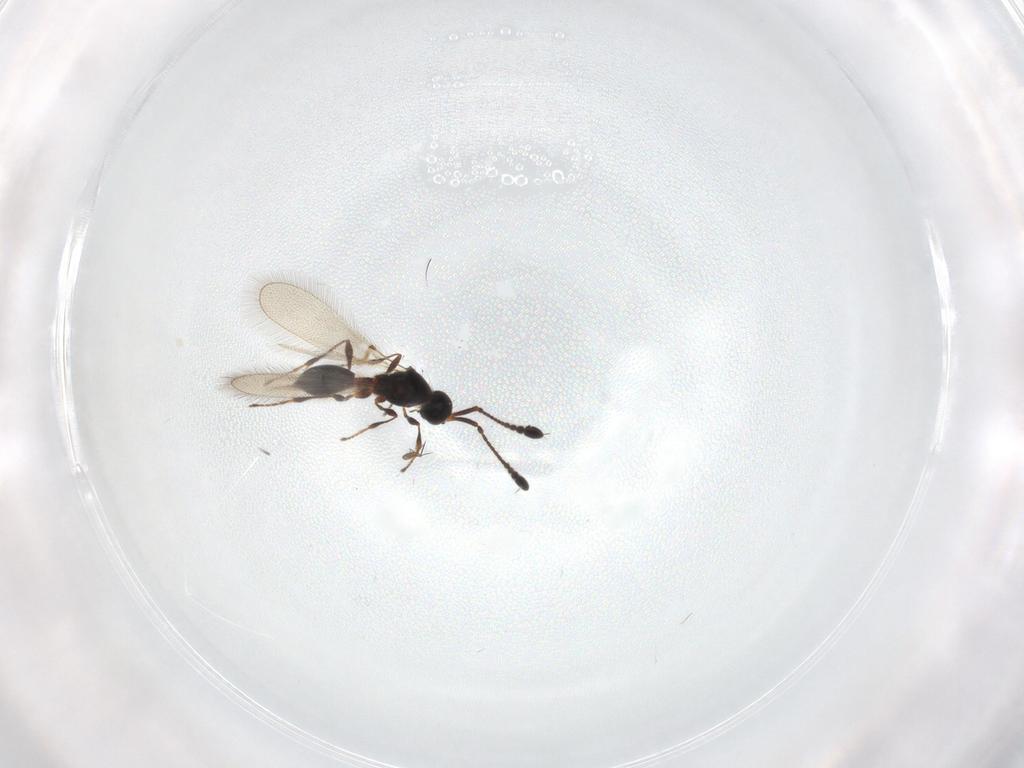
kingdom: Animalia
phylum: Arthropoda
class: Insecta
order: Hymenoptera
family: Diapriidae
